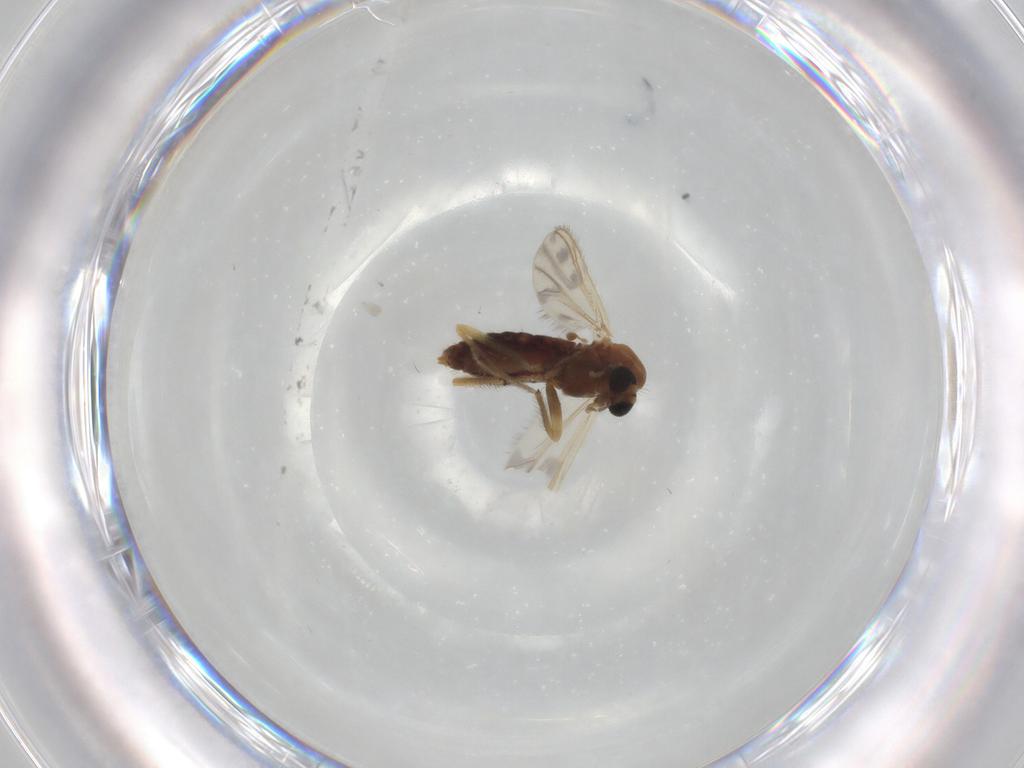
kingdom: Animalia
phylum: Arthropoda
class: Insecta
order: Diptera
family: Chironomidae
